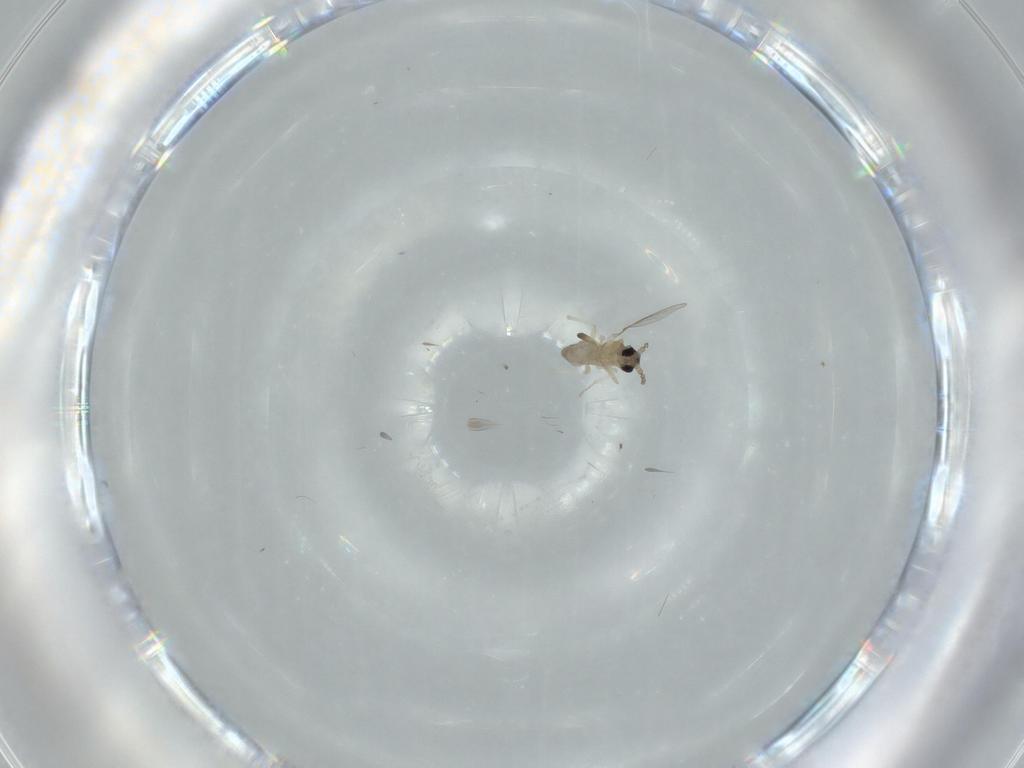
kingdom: Animalia
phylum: Arthropoda
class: Insecta
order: Diptera
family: Cecidomyiidae
